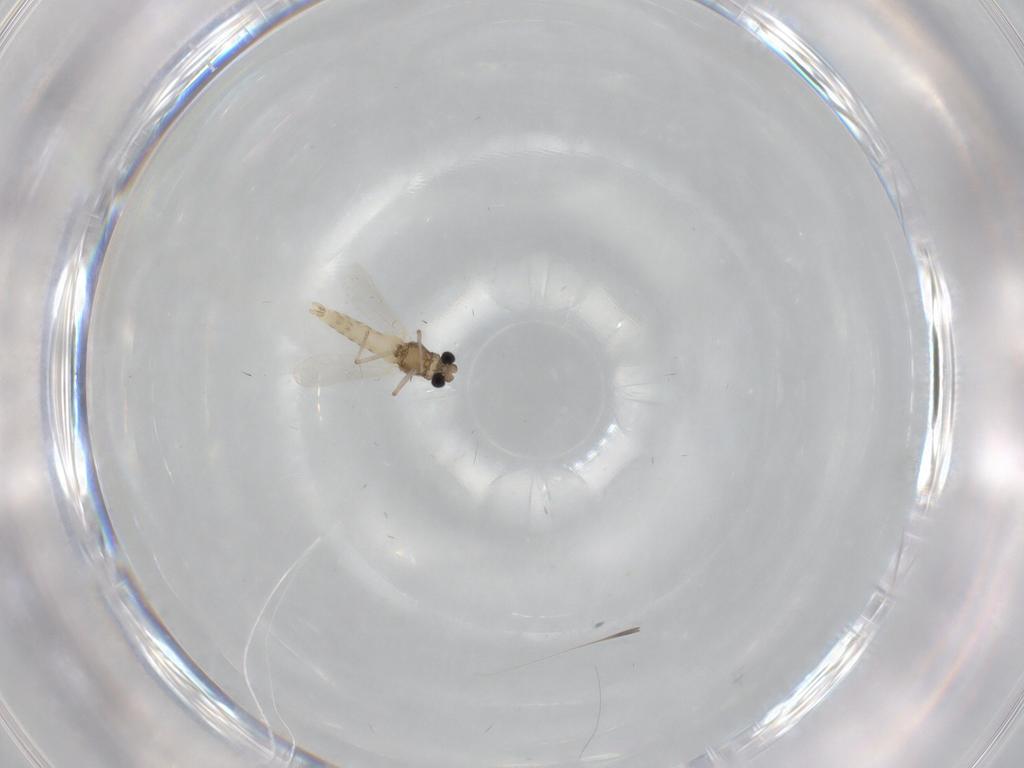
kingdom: Animalia
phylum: Arthropoda
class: Insecta
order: Diptera
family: Chironomidae
